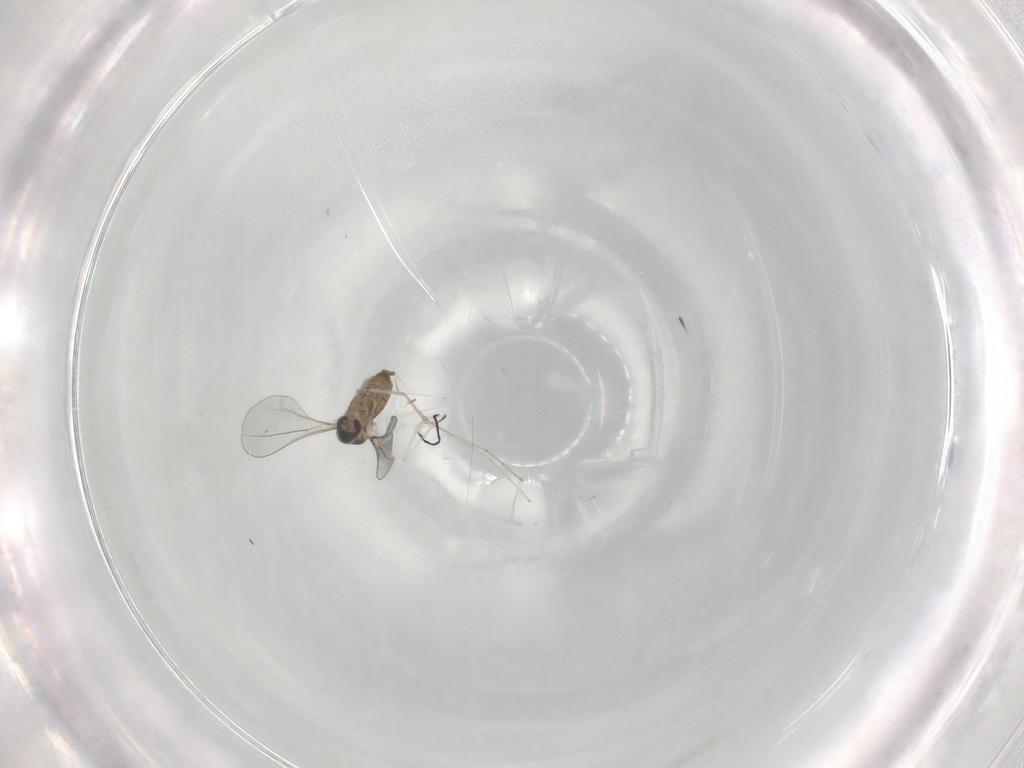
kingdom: Animalia
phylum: Arthropoda
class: Insecta
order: Diptera
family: Cecidomyiidae
